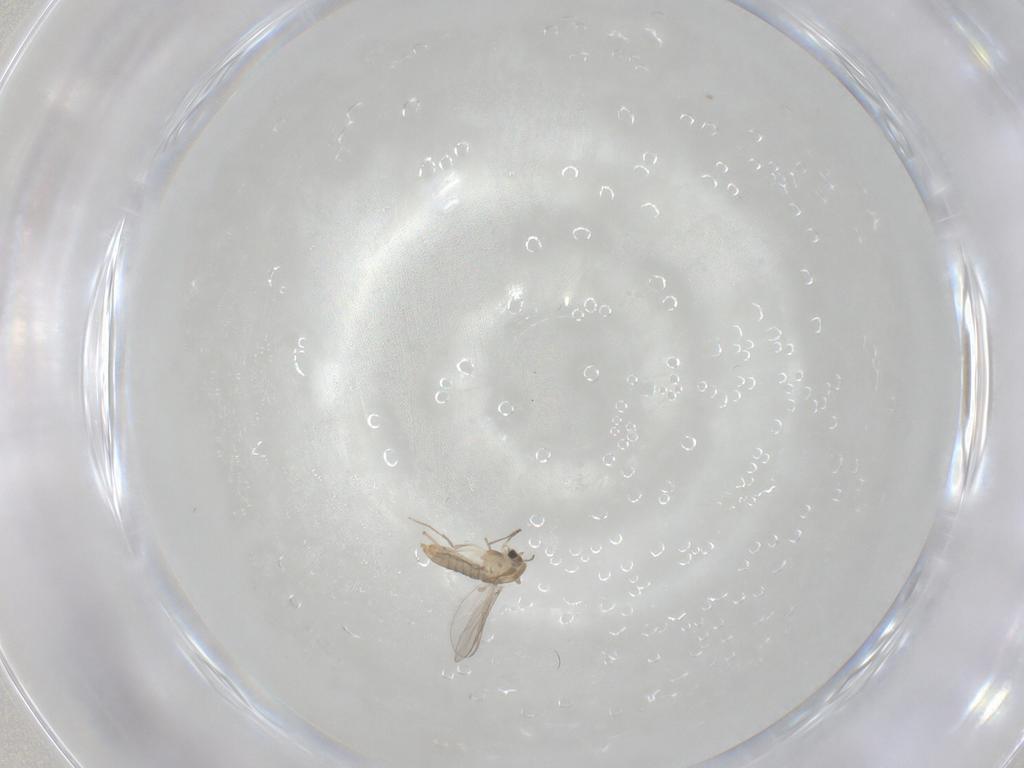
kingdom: Animalia
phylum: Arthropoda
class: Insecta
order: Diptera
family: Chironomidae
